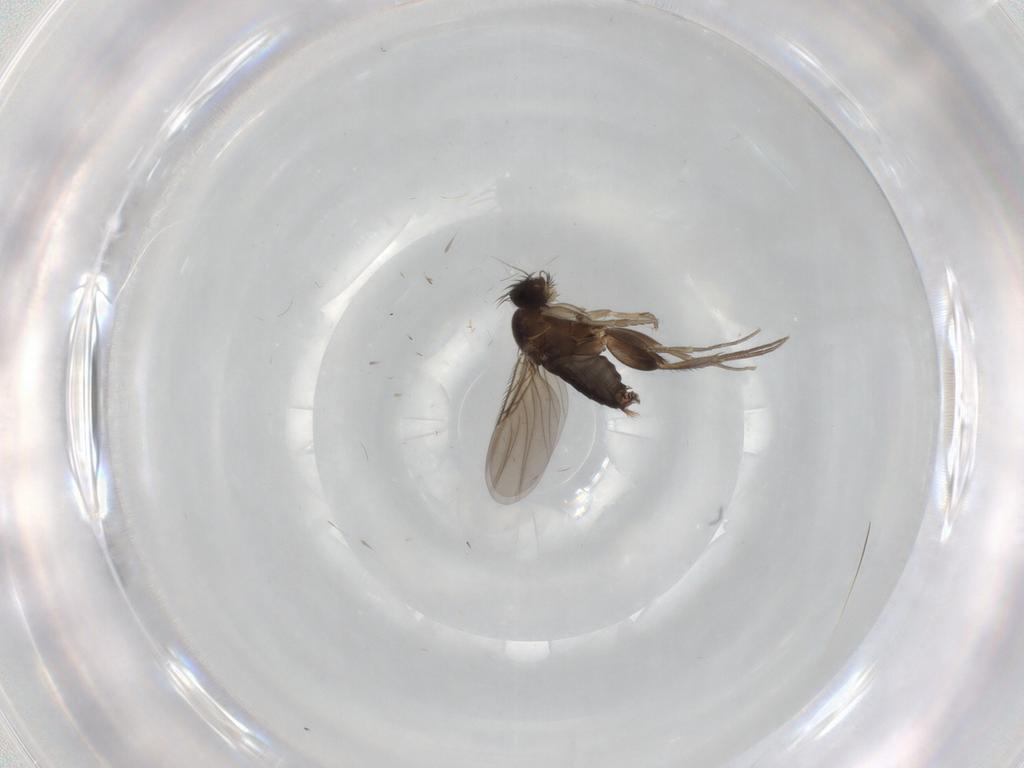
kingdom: Animalia
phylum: Arthropoda
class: Insecta
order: Diptera
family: Phoridae
